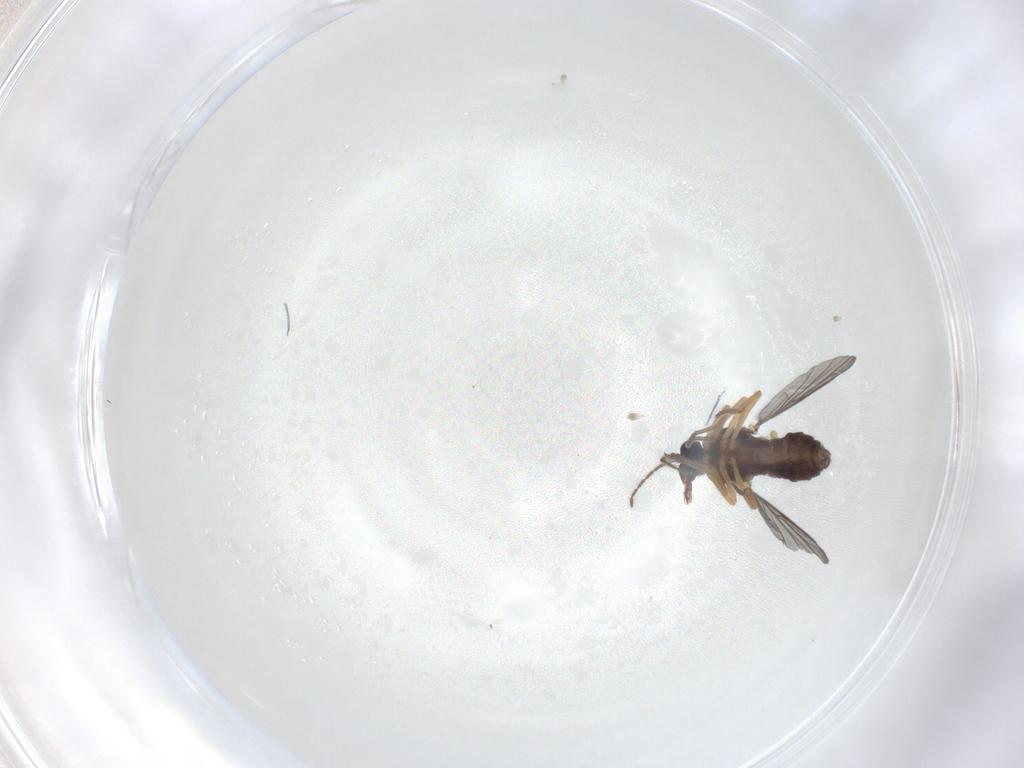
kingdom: Animalia
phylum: Arthropoda
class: Insecta
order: Diptera
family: Ceratopogonidae
